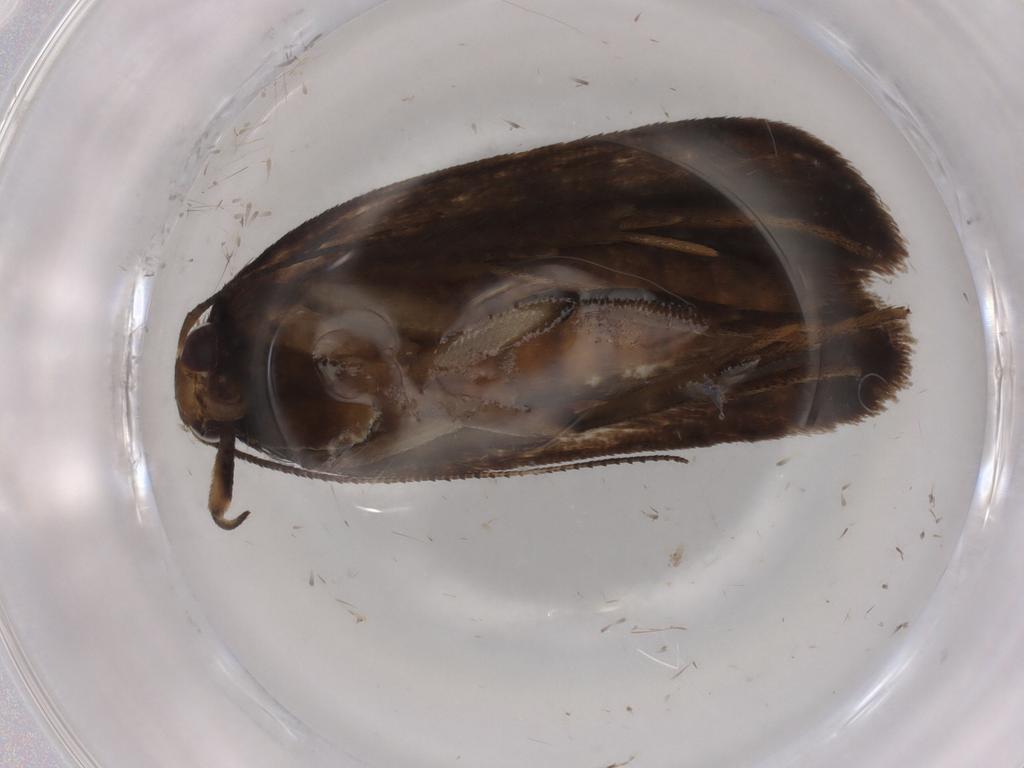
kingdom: Animalia
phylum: Arthropoda
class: Insecta
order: Lepidoptera
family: Gelechiidae
